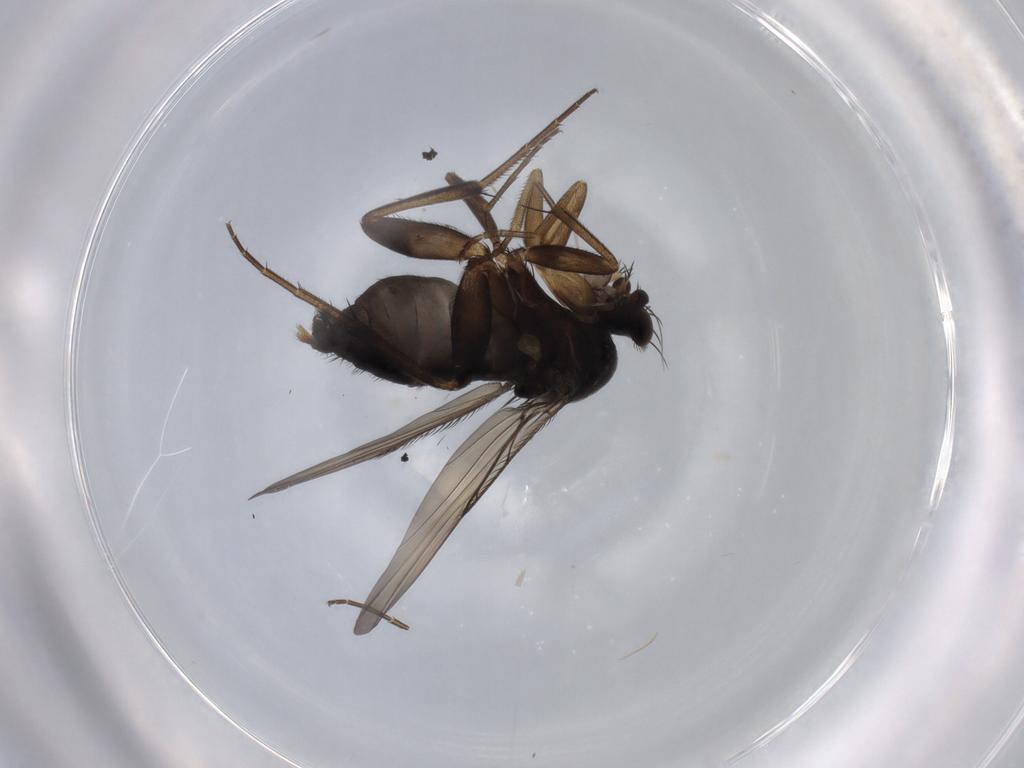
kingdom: Animalia
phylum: Arthropoda
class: Insecta
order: Diptera
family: Phoridae
